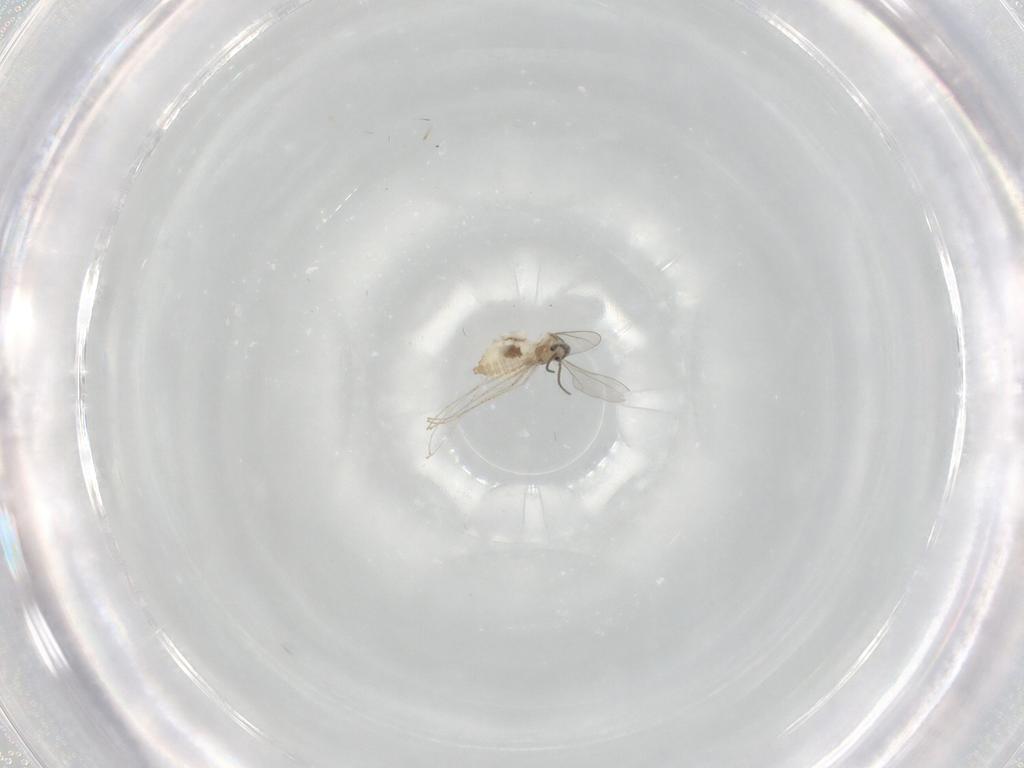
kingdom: Animalia
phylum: Arthropoda
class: Insecta
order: Diptera
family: Cecidomyiidae
